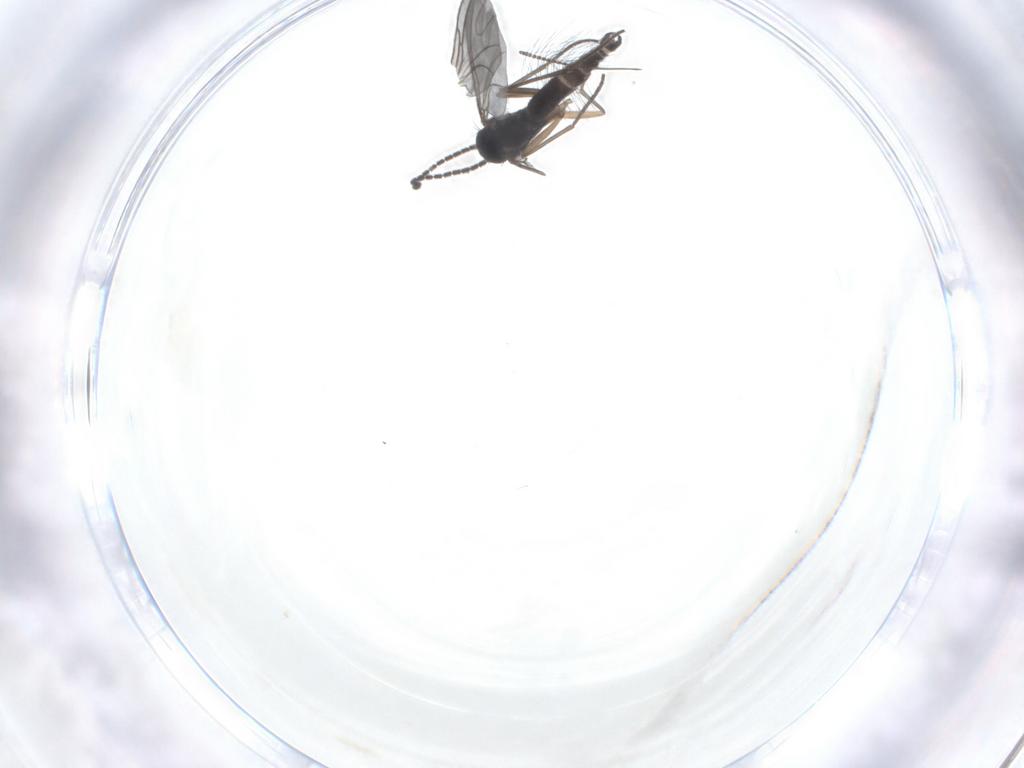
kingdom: Animalia
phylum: Arthropoda
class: Insecta
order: Diptera
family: Sciaridae
